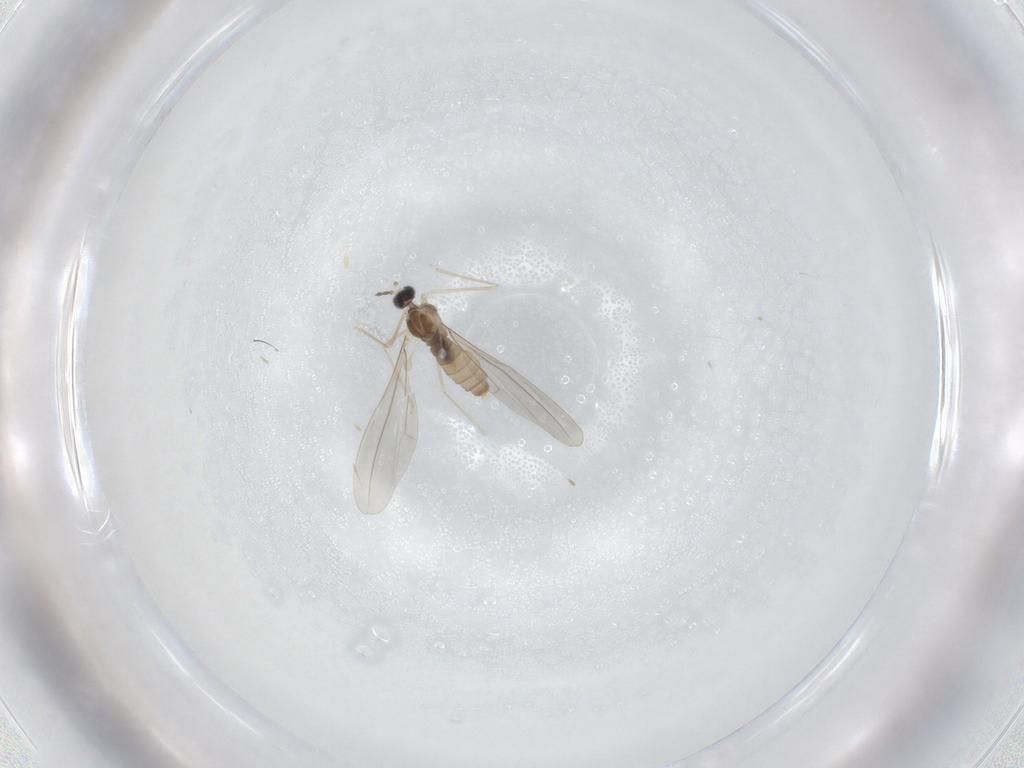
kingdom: Animalia
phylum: Arthropoda
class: Insecta
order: Diptera
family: Cecidomyiidae
